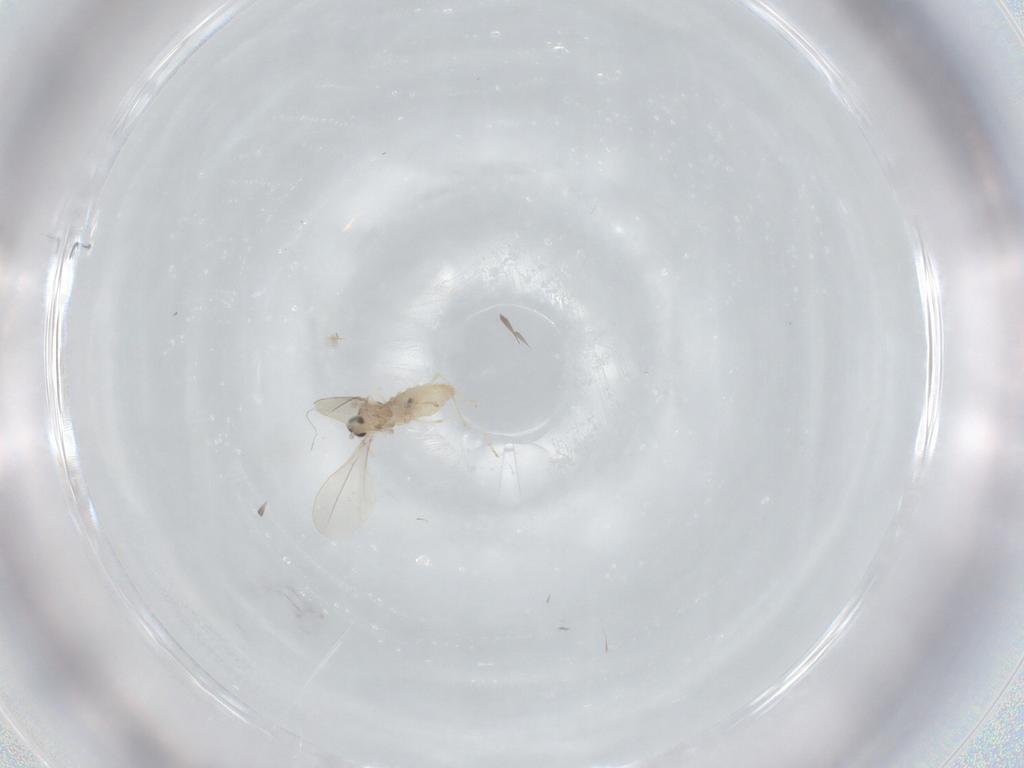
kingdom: Animalia
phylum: Arthropoda
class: Insecta
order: Diptera
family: Cecidomyiidae
